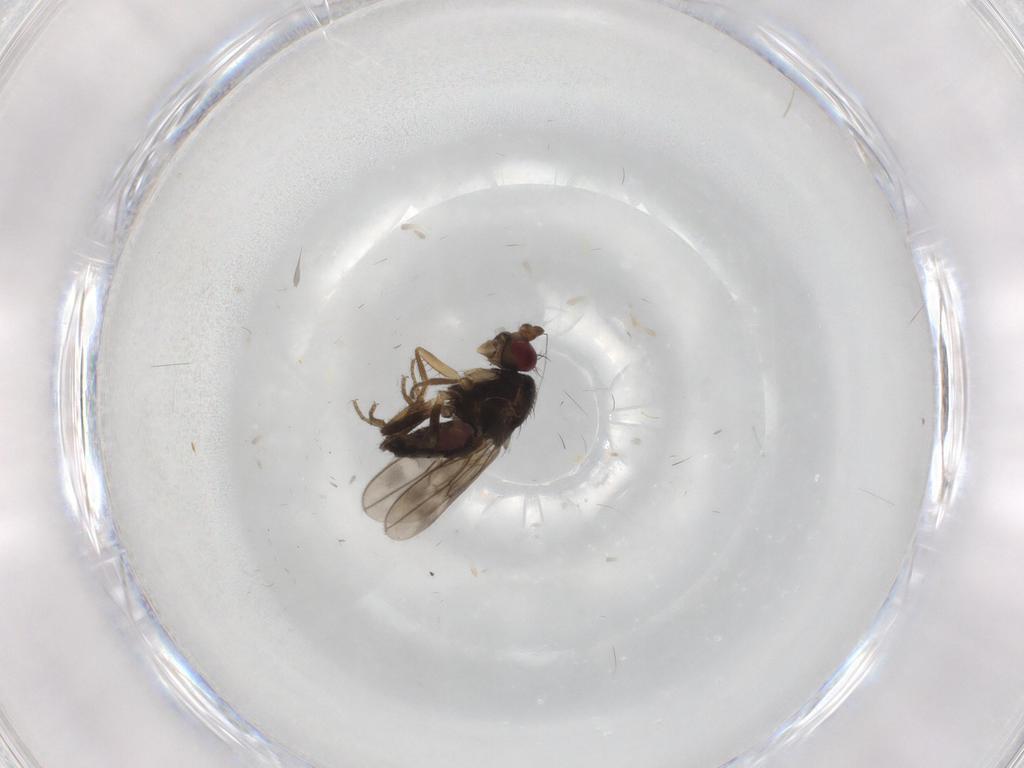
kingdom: Animalia
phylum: Arthropoda
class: Insecta
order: Diptera
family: Sphaeroceridae
